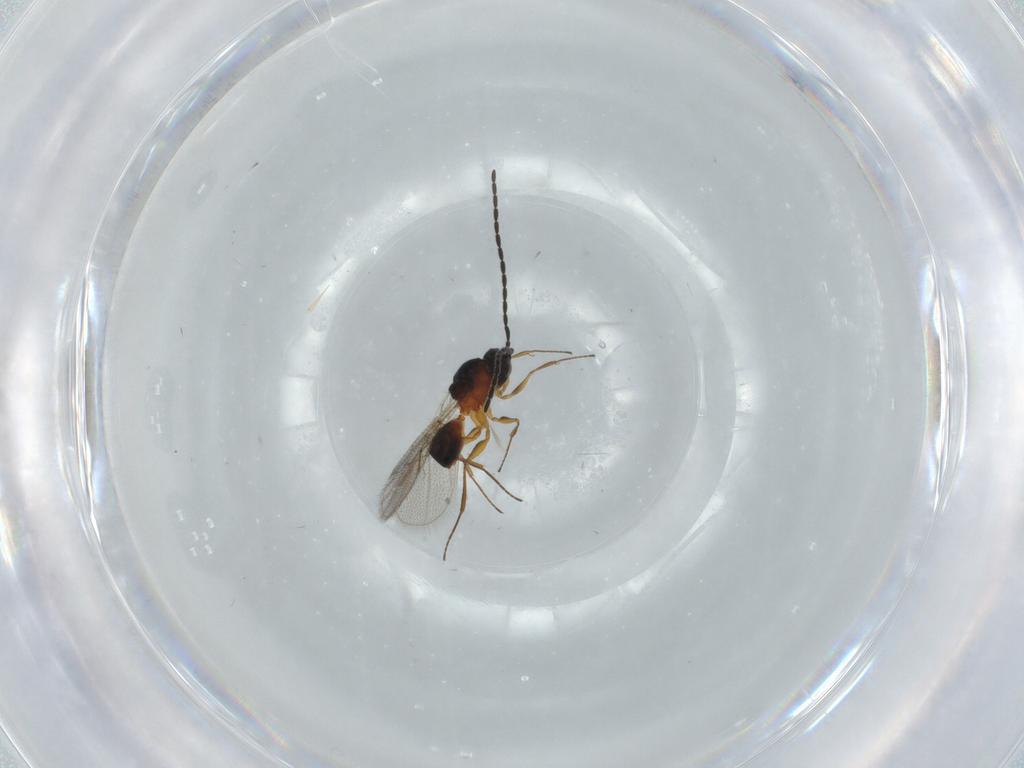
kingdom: Animalia
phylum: Arthropoda
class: Insecta
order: Hymenoptera
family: Figitidae
